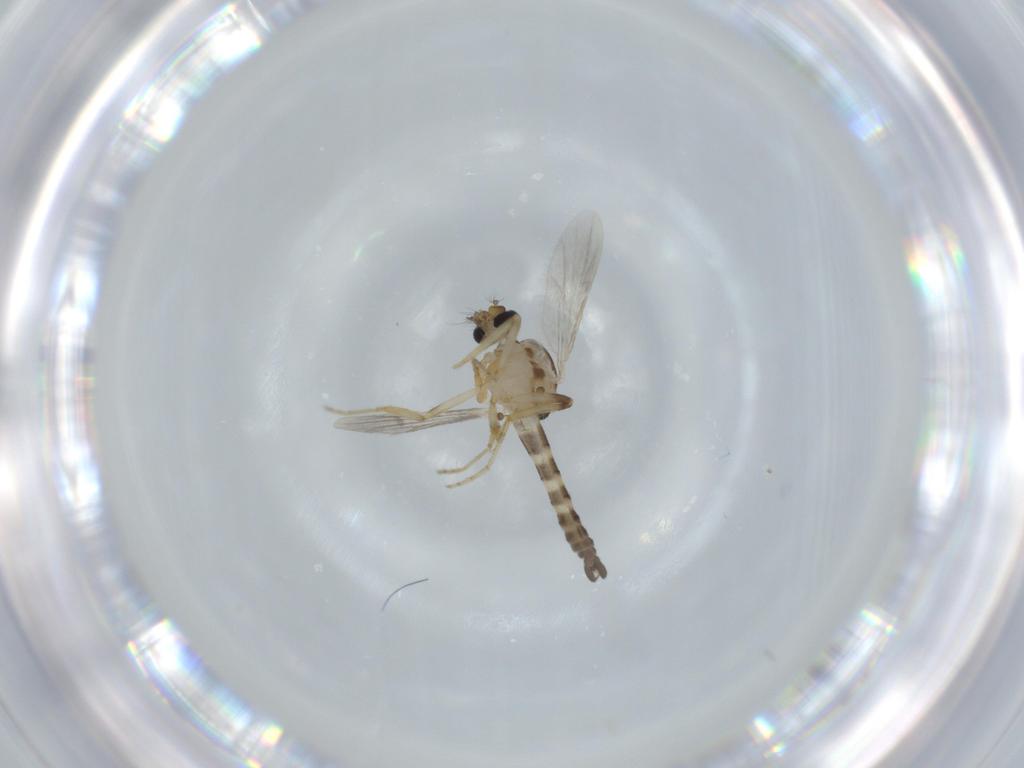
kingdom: Animalia
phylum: Arthropoda
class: Insecta
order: Diptera
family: Ceratopogonidae
